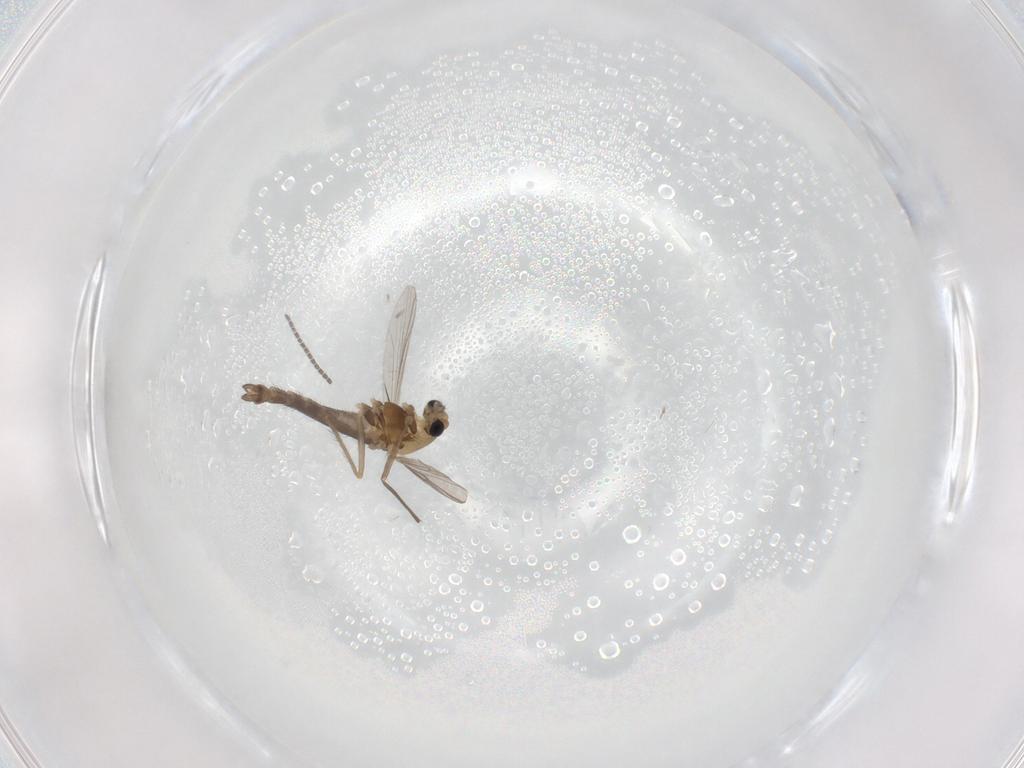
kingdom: Animalia
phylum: Arthropoda
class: Insecta
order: Diptera
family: Chironomidae
